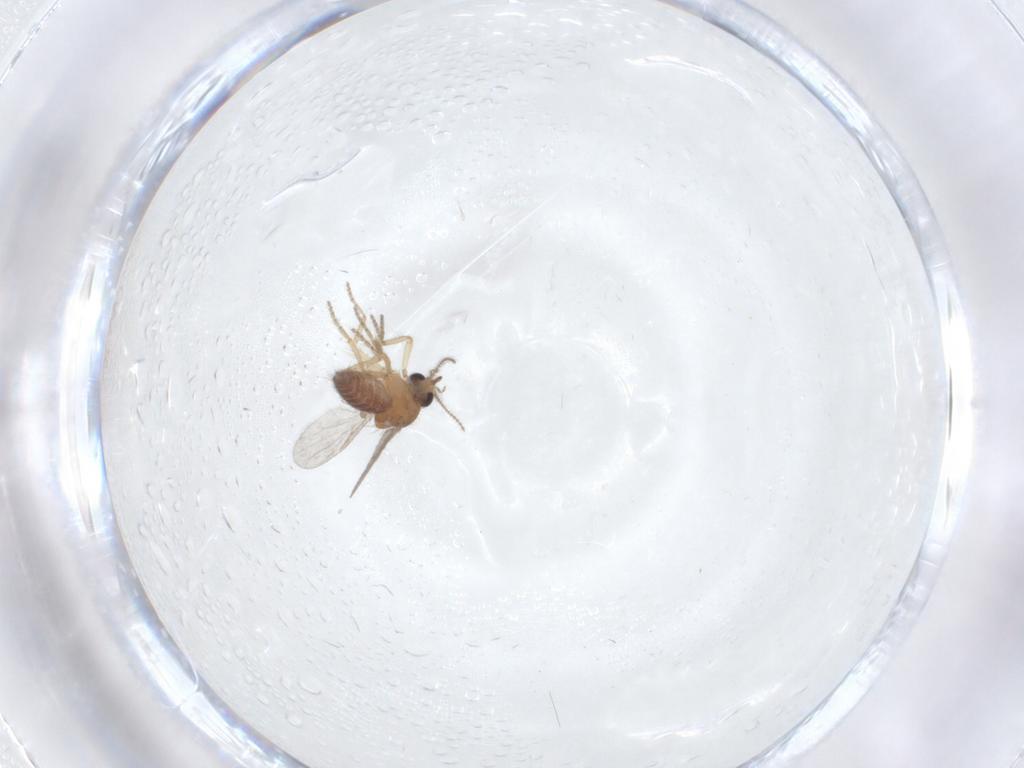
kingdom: Animalia
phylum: Arthropoda
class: Insecta
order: Diptera
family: Ceratopogonidae
